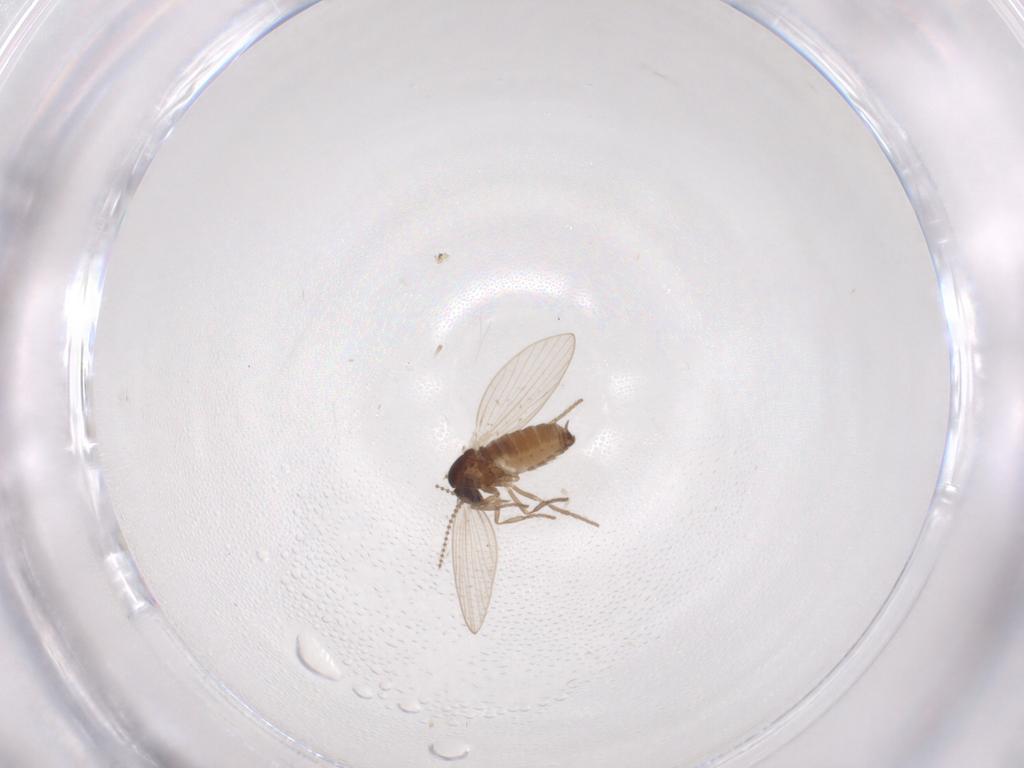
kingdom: Animalia
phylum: Arthropoda
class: Insecta
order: Diptera
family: Psychodidae
